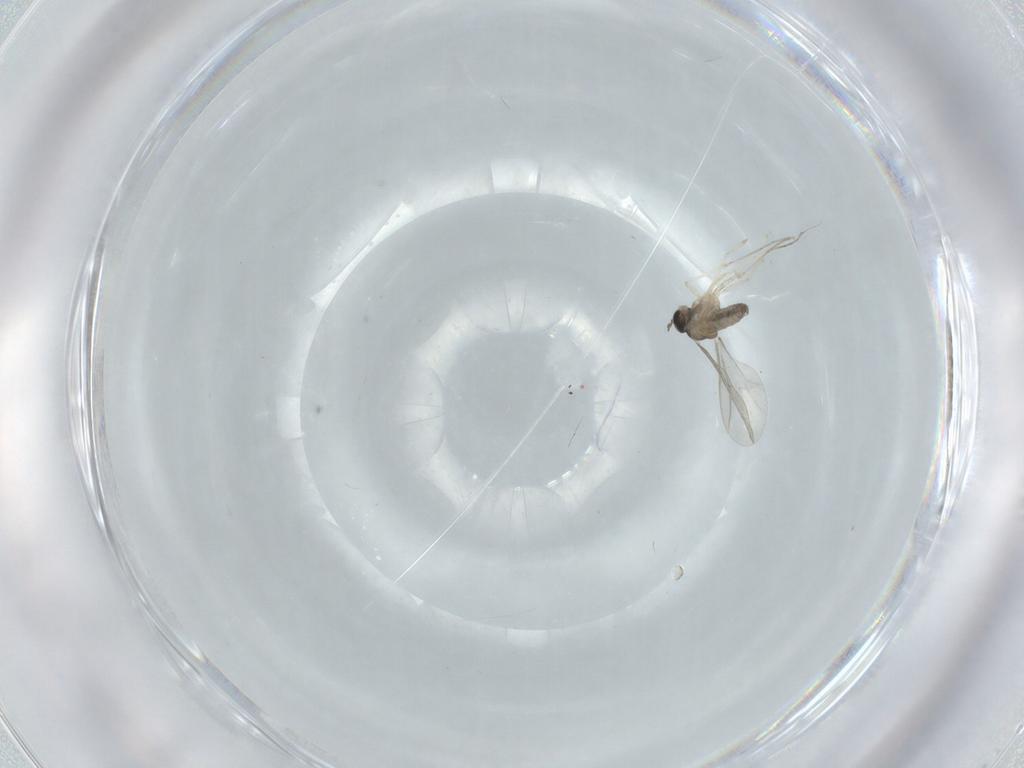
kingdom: Animalia
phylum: Arthropoda
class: Insecta
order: Diptera
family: Cecidomyiidae
